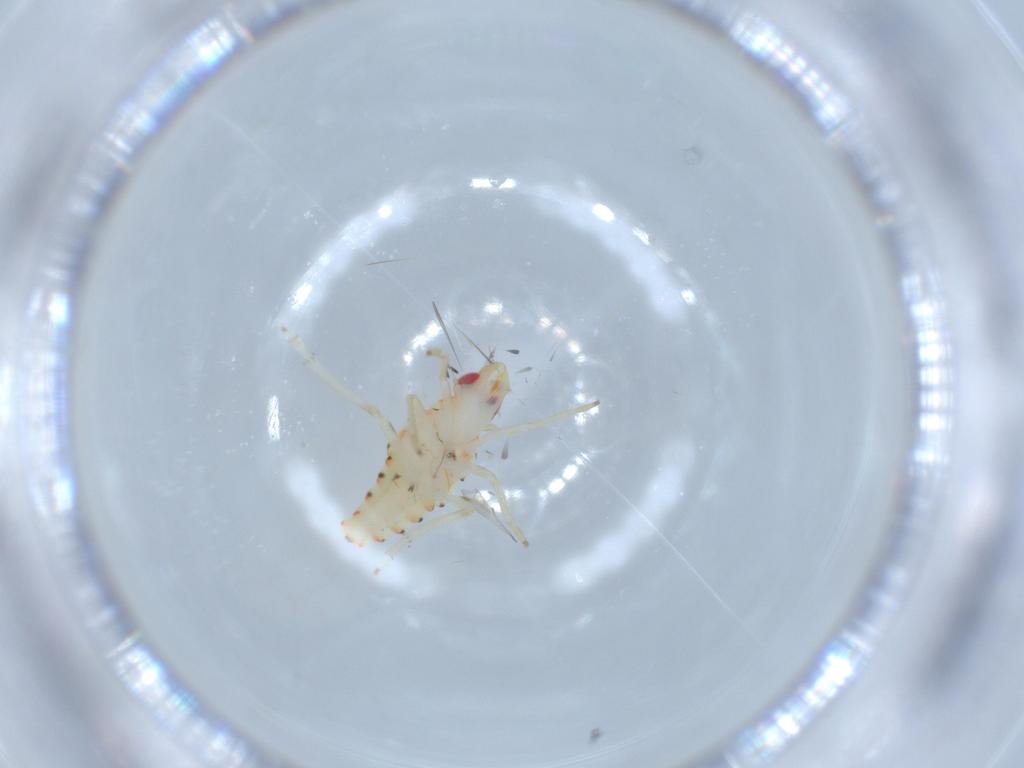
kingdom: Animalia
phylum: Arthropoda
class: Insecta
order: Hemiptera
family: Tropiduchidae
